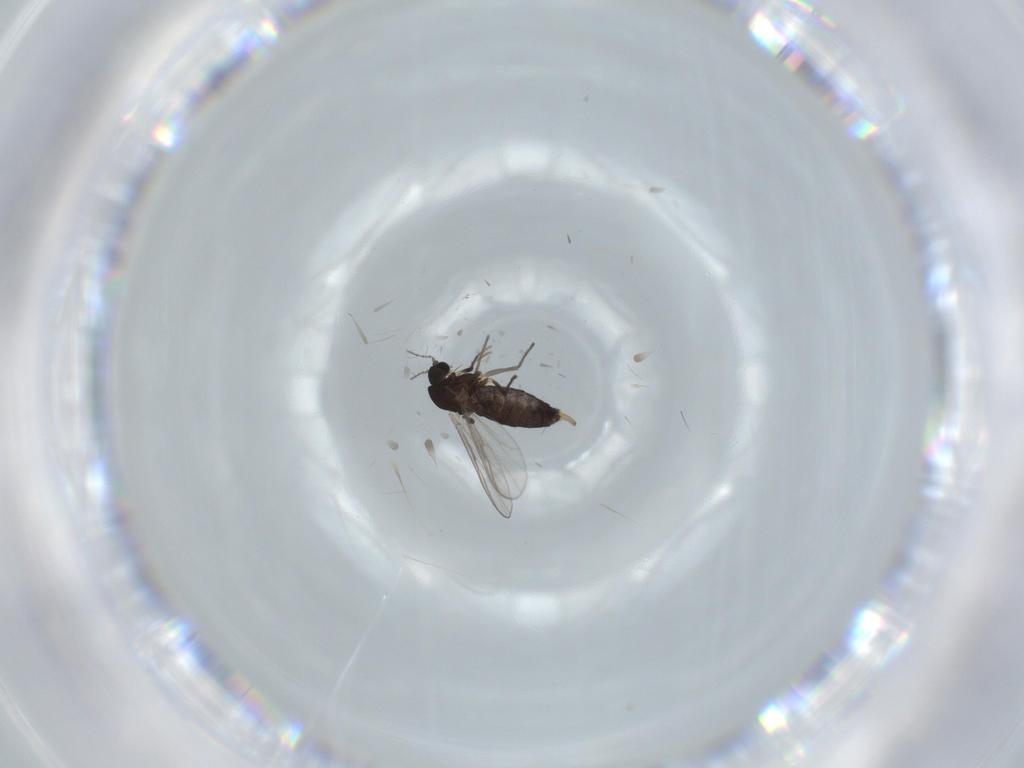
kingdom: Animalia
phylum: Arthropoda
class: Insecta
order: Diptera
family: Chironomidae
